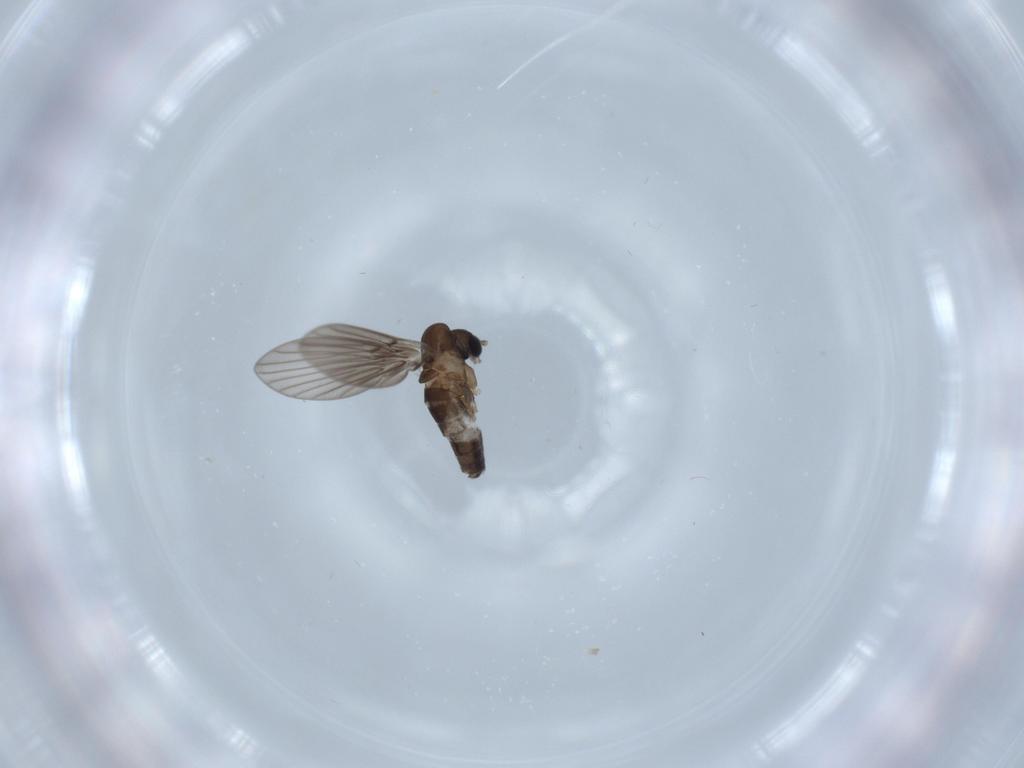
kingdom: Animalia
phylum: Arthropoda
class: Insecta
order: Diptera
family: Psychodidae
